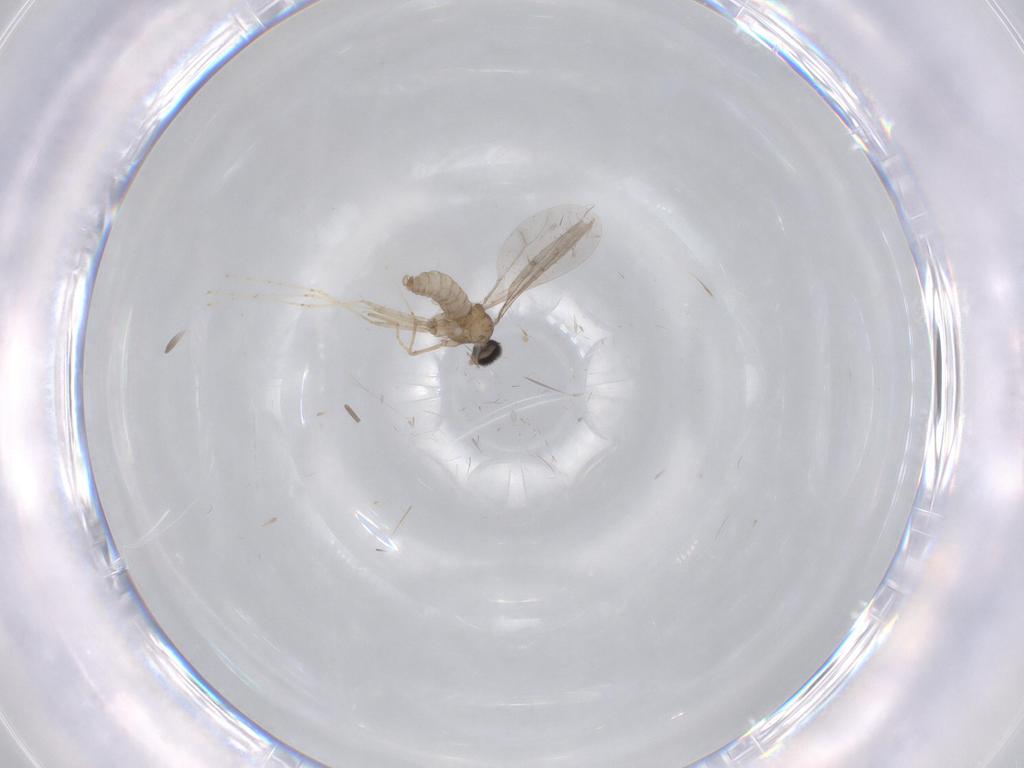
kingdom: Animalia
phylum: Arthropoda
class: Insecta
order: Diptera
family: Cecidomyiidae
